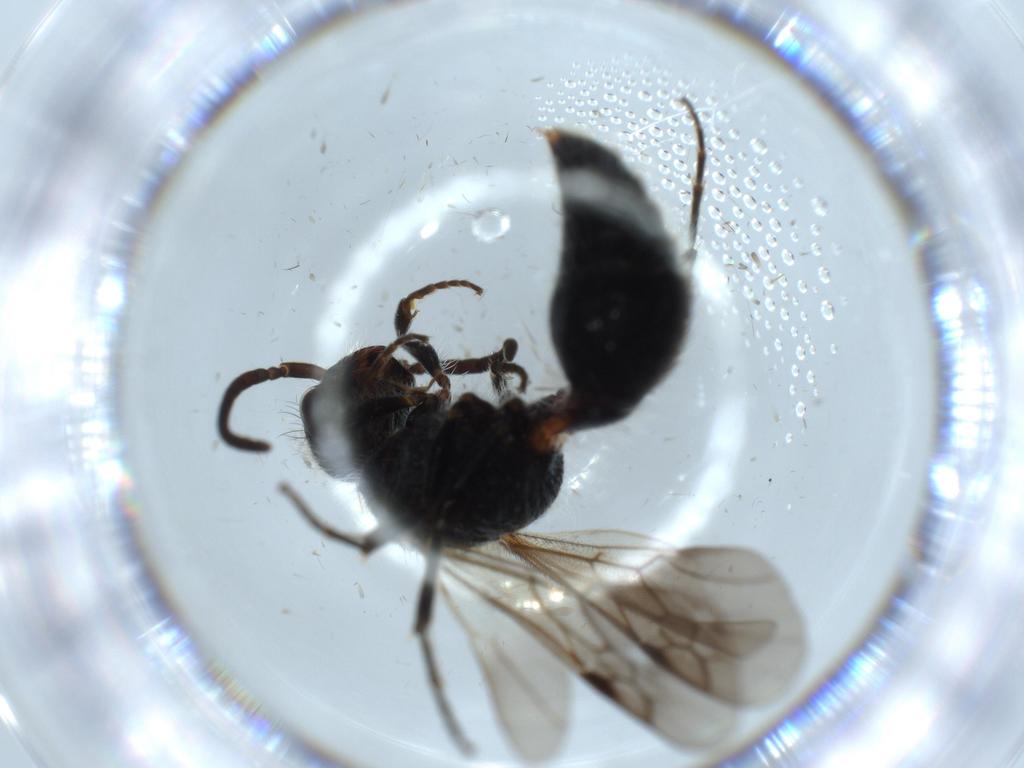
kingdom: Animalia
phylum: Arthropoda
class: Insecta
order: Hymenoptera
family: Mutillidae
